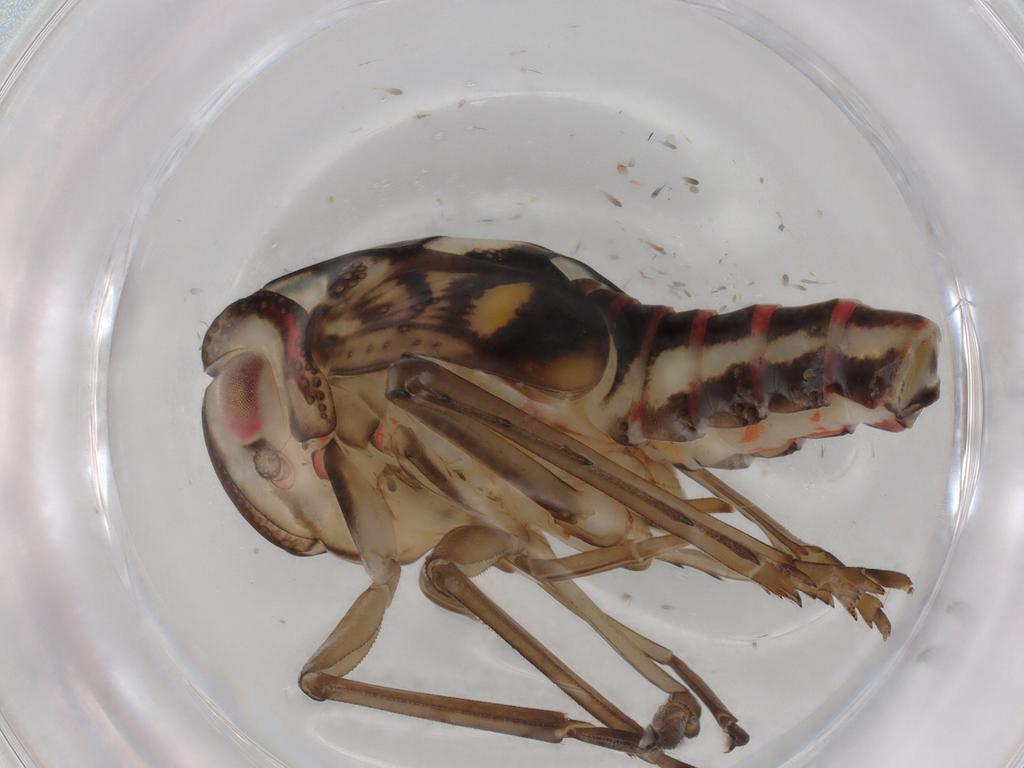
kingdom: Animalia
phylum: Arthropoda
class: Insecta
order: Hemiptera
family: Nogodinidae
